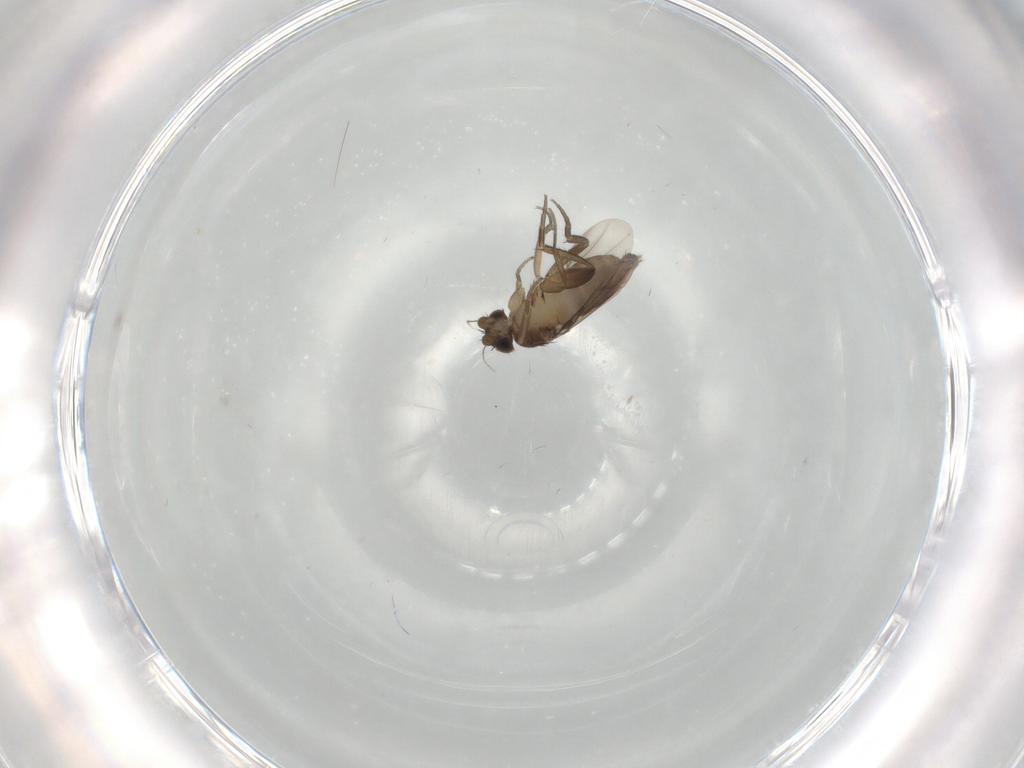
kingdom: Animalia
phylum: Arthropoda
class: Insecta
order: Diptera
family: Phoridae
